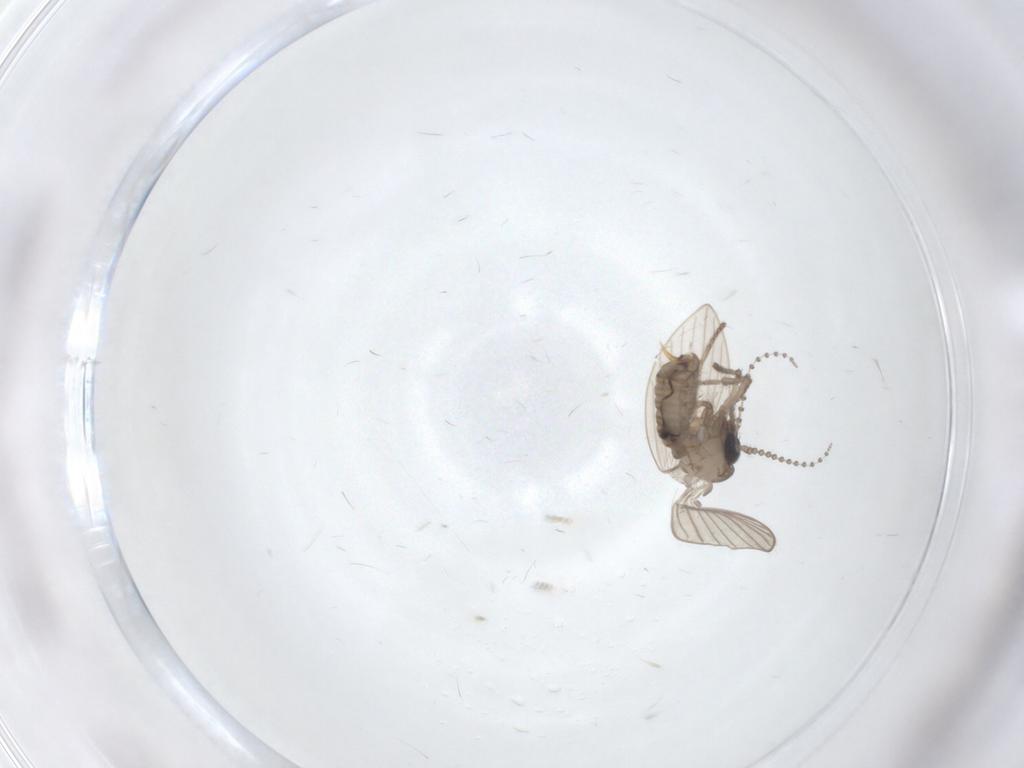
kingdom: Animalia
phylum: Arthropoda
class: Insecta
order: Diptera
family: Psychodidae
